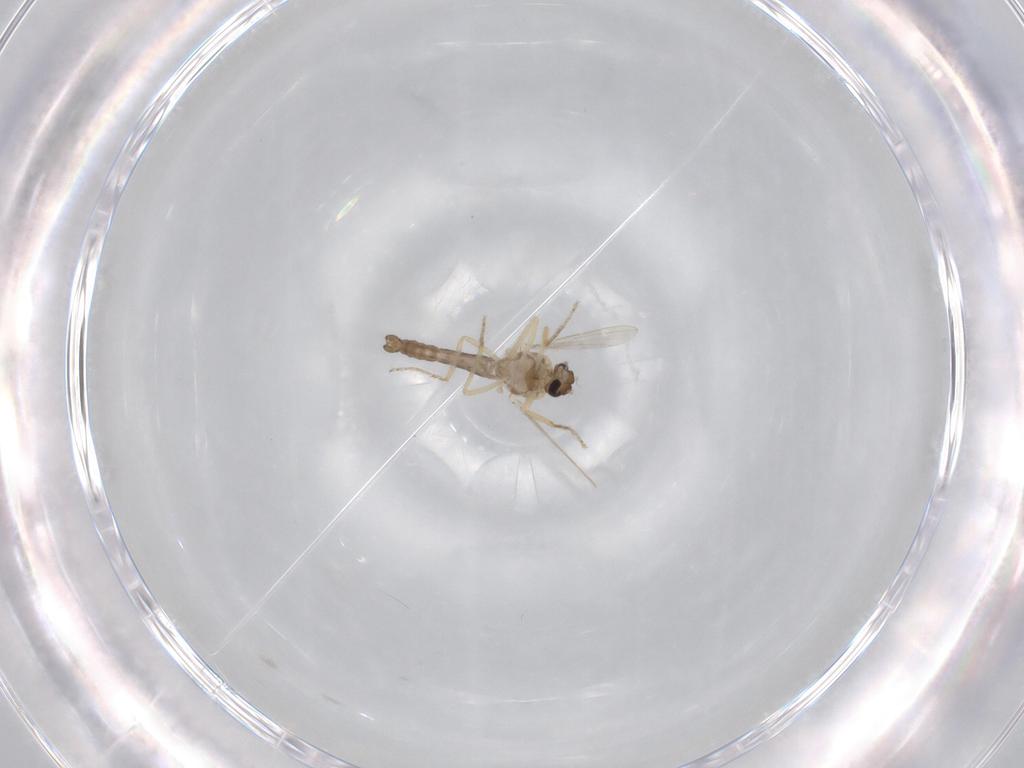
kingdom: Animalia
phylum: Arthropoda
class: Insecta
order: Diptera
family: Ceratopogonidae
